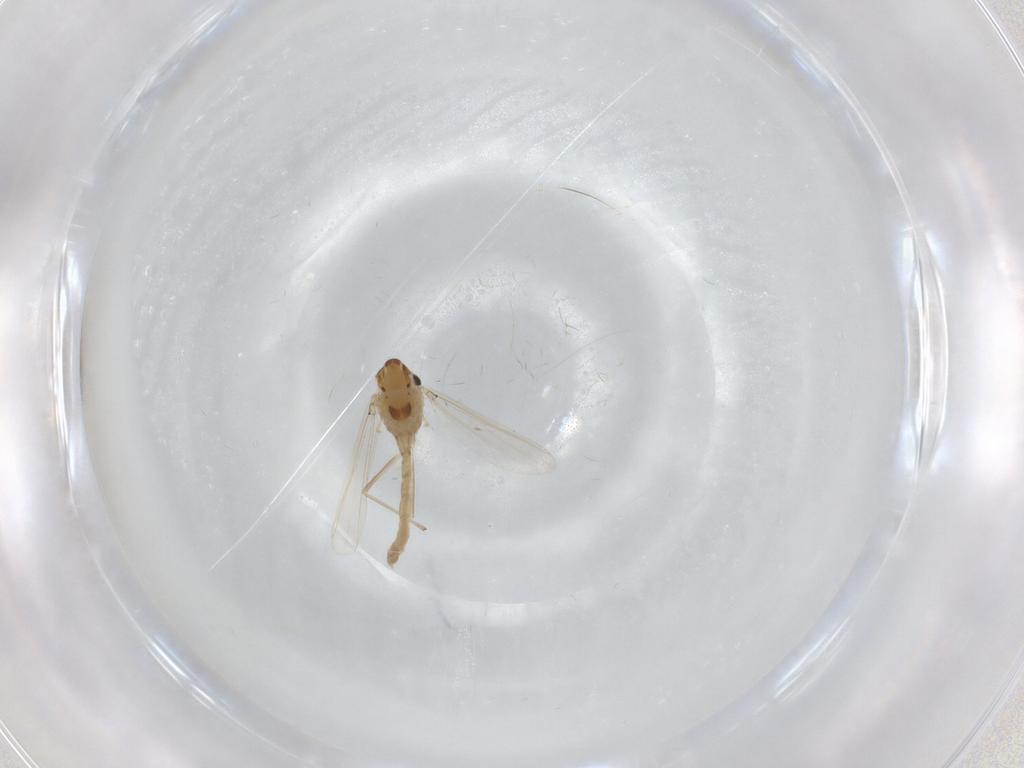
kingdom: Animalia
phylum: Arthropoda
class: Insecta
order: Diptera
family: Chironomidae
